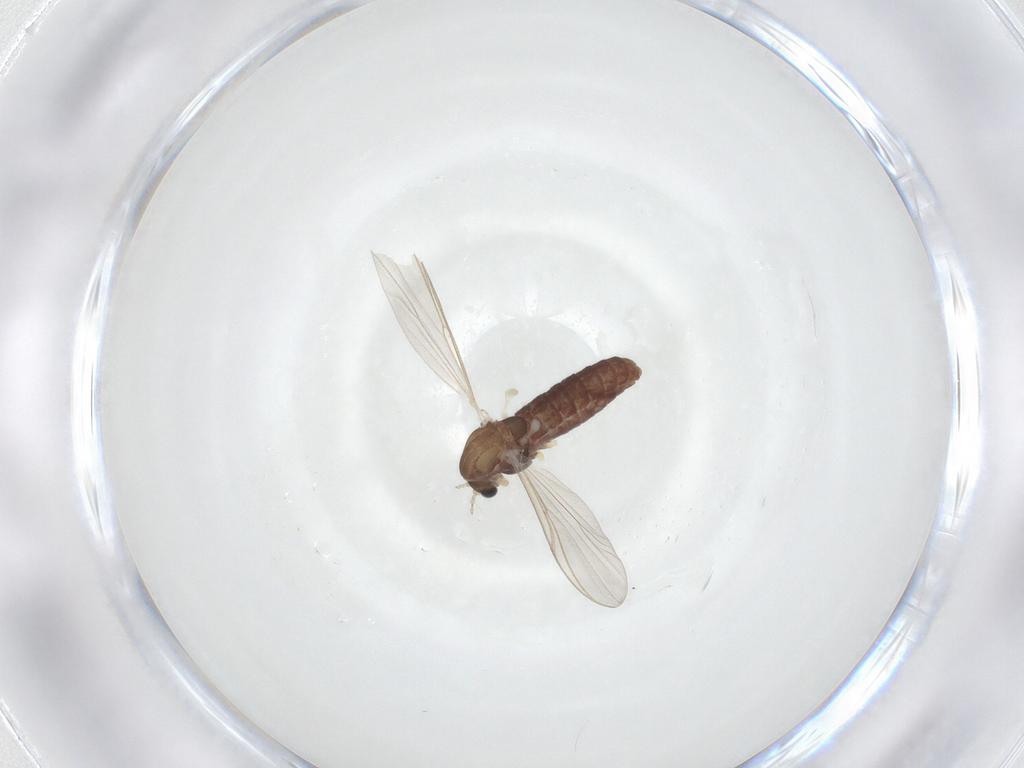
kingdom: Animalia
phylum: Arthropoda
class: Insecta
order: Diptera
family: Chironomidae
